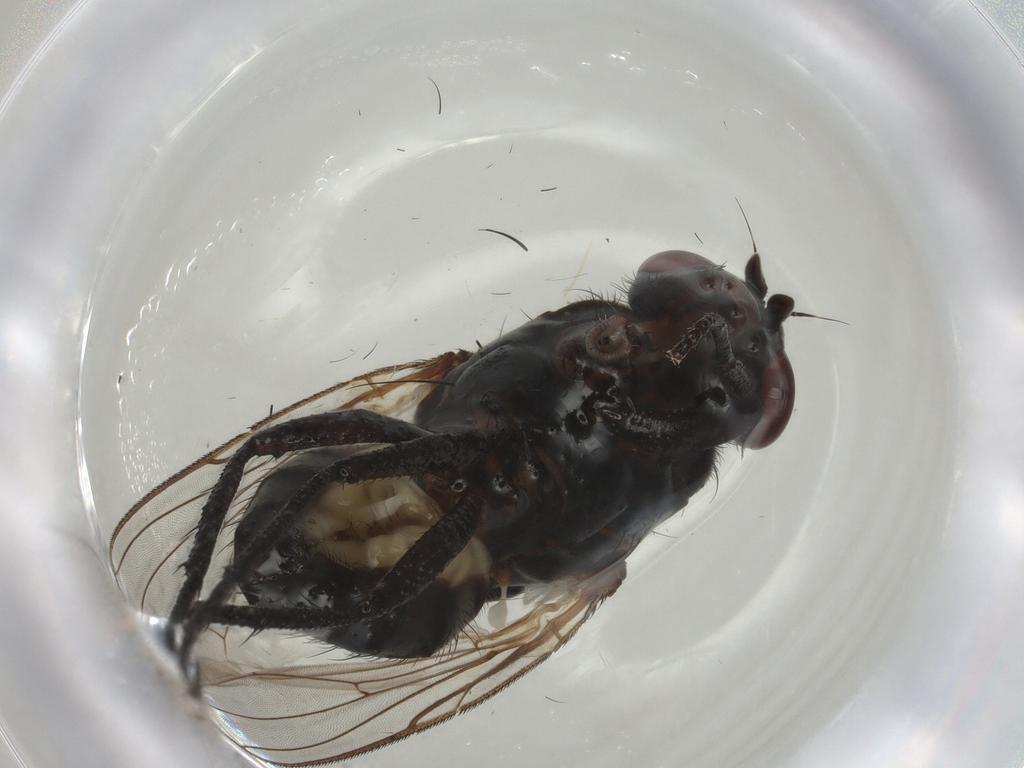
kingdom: Animalia
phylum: Arthropoda
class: Insecta
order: Diptera
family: Anthomyiidae
